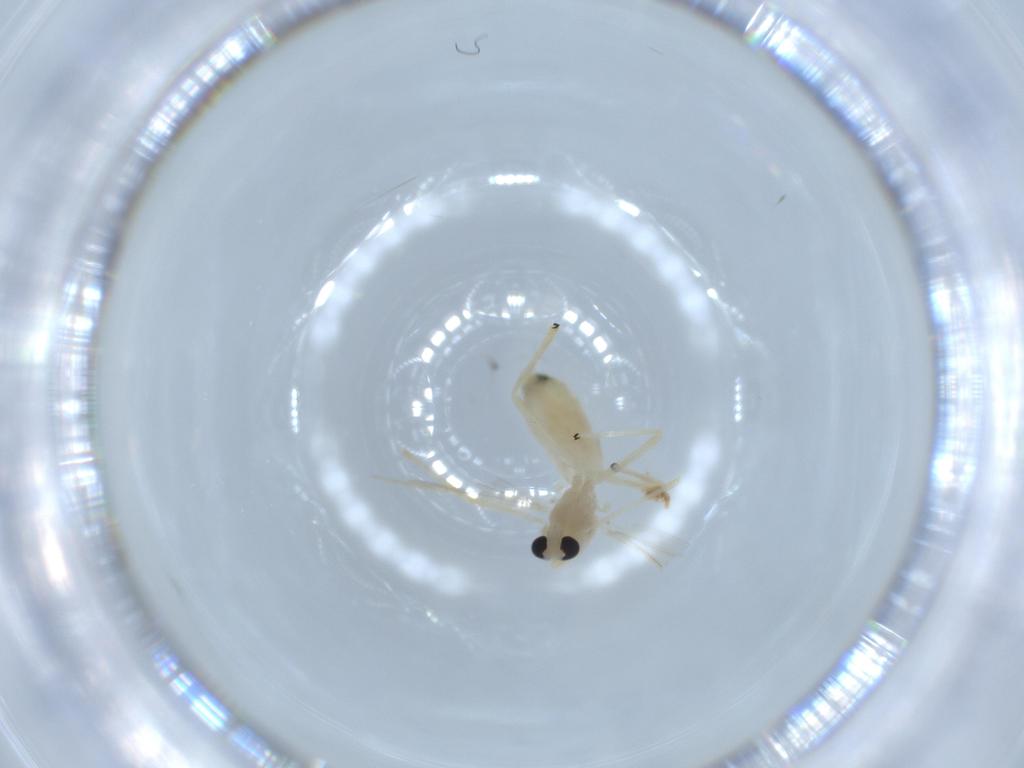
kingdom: Animalia
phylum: Arthropoda
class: Insecta
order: Diptera
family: Chironomidae
